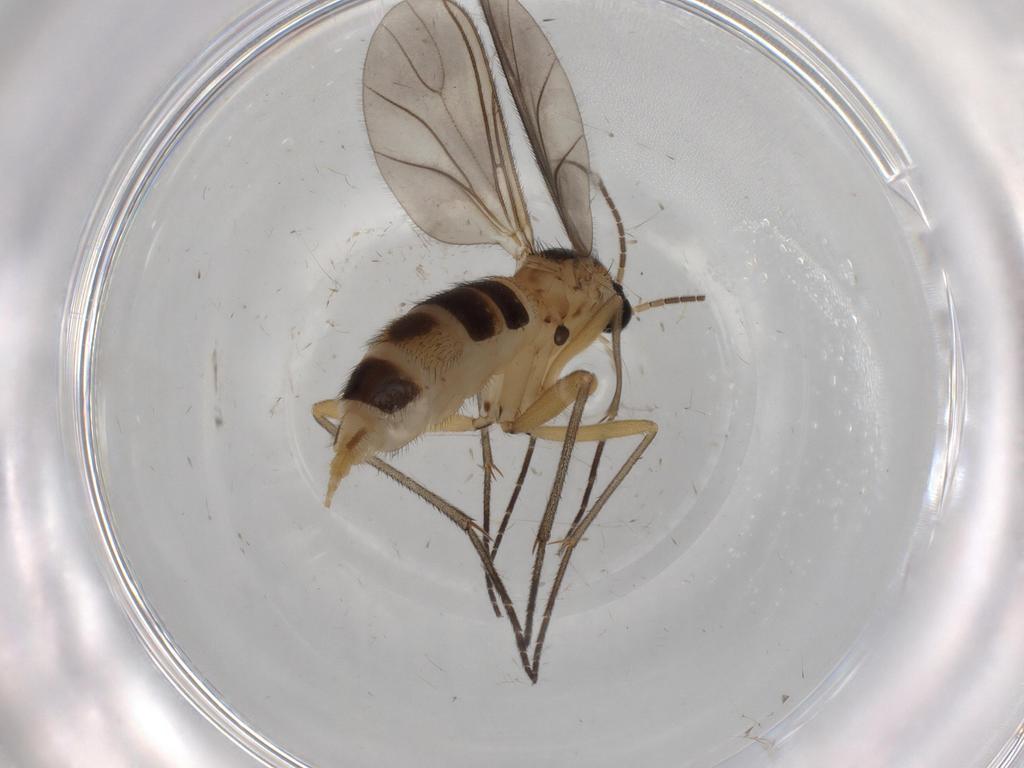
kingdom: Animalia
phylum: Arthropoda
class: Insecta
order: Diptera
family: Sciaridae
